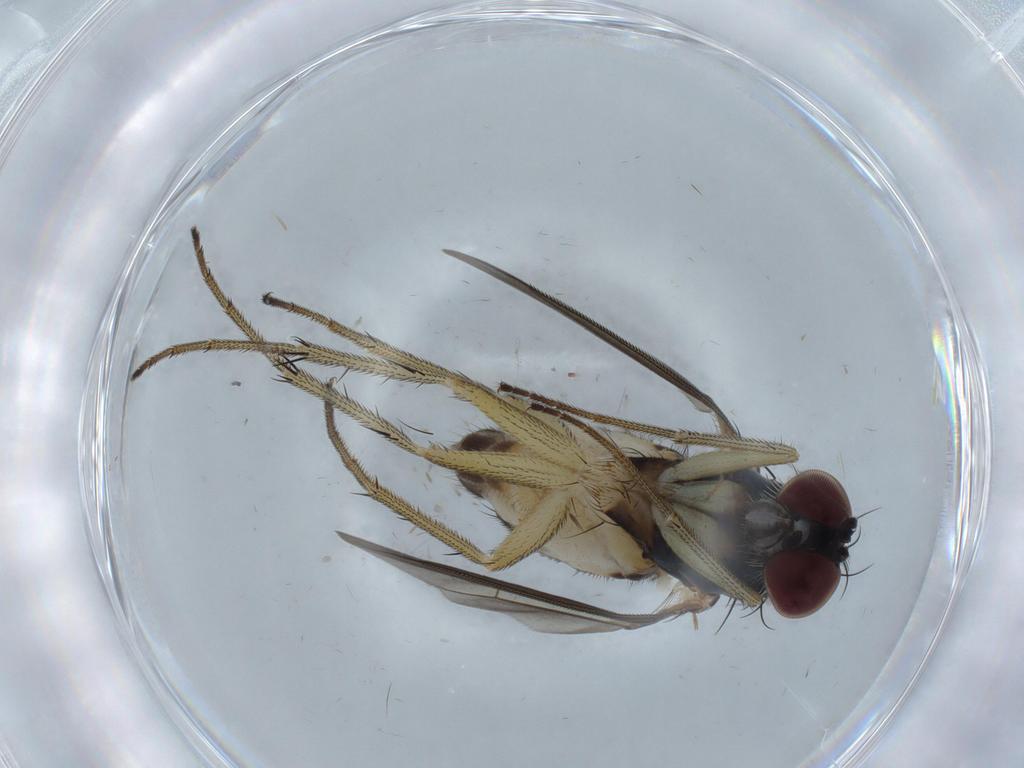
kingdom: Animalia
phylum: Arthropoda
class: Insecta
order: Diptera
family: Dolichopodidae
